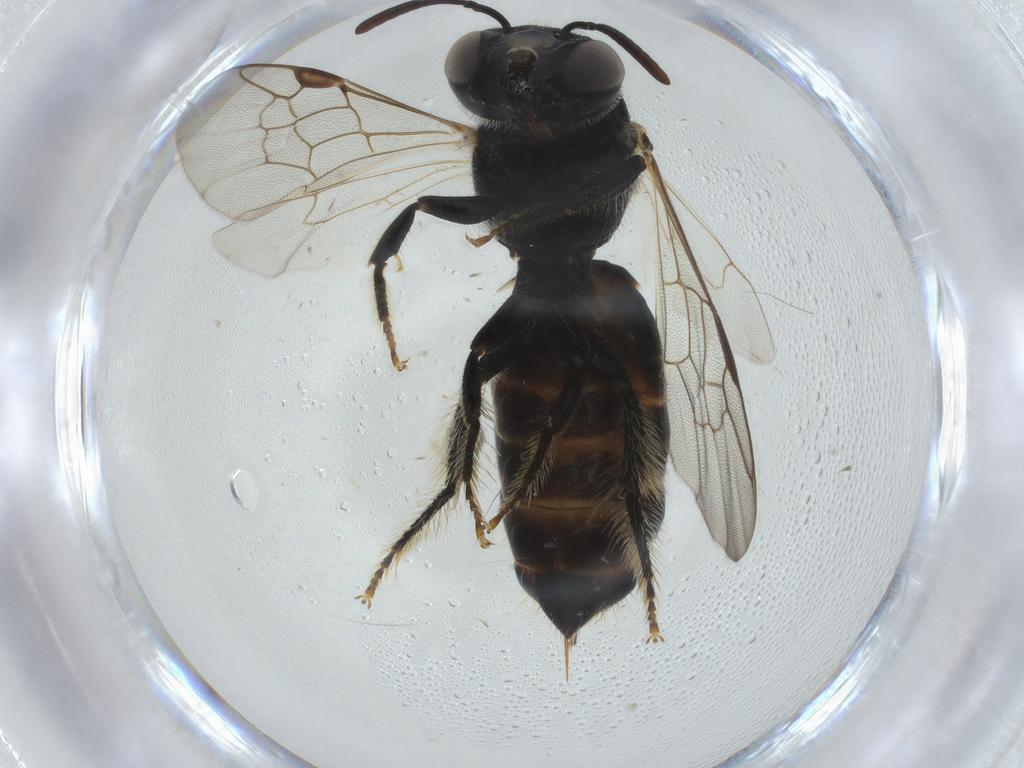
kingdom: Animalia
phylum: Arthropoda
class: Insecta
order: Hymenoptera
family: Apidae
